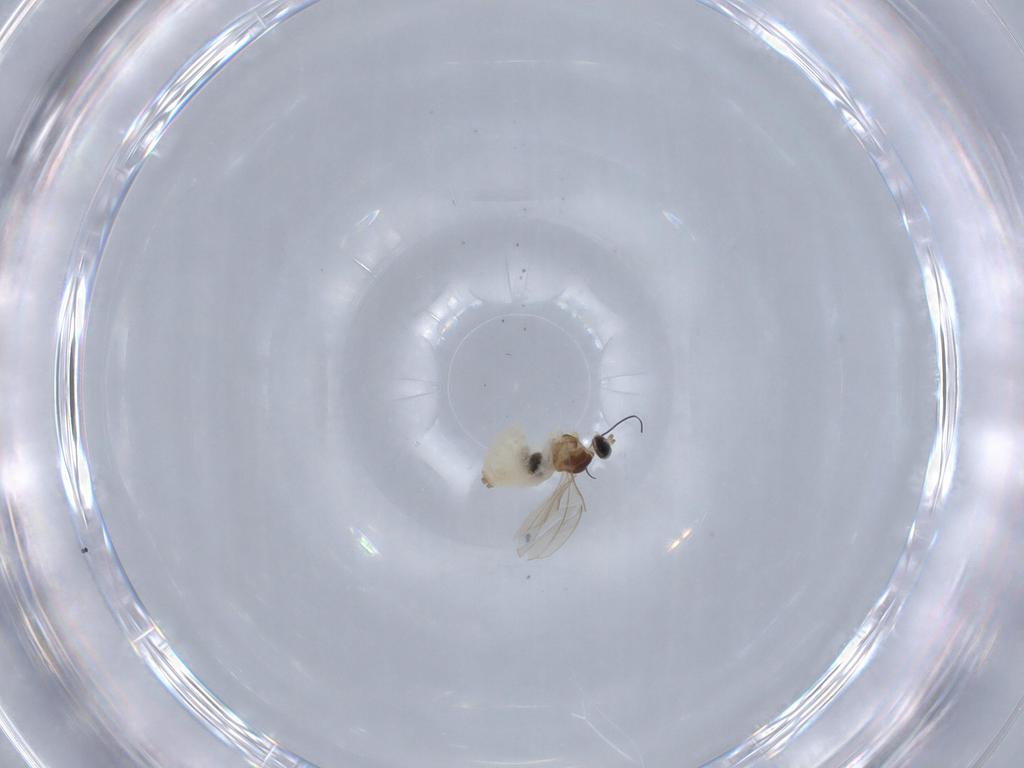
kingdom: Animalia
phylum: Arthropoda
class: Insecta
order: Diptera
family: Cecidomyiidae
